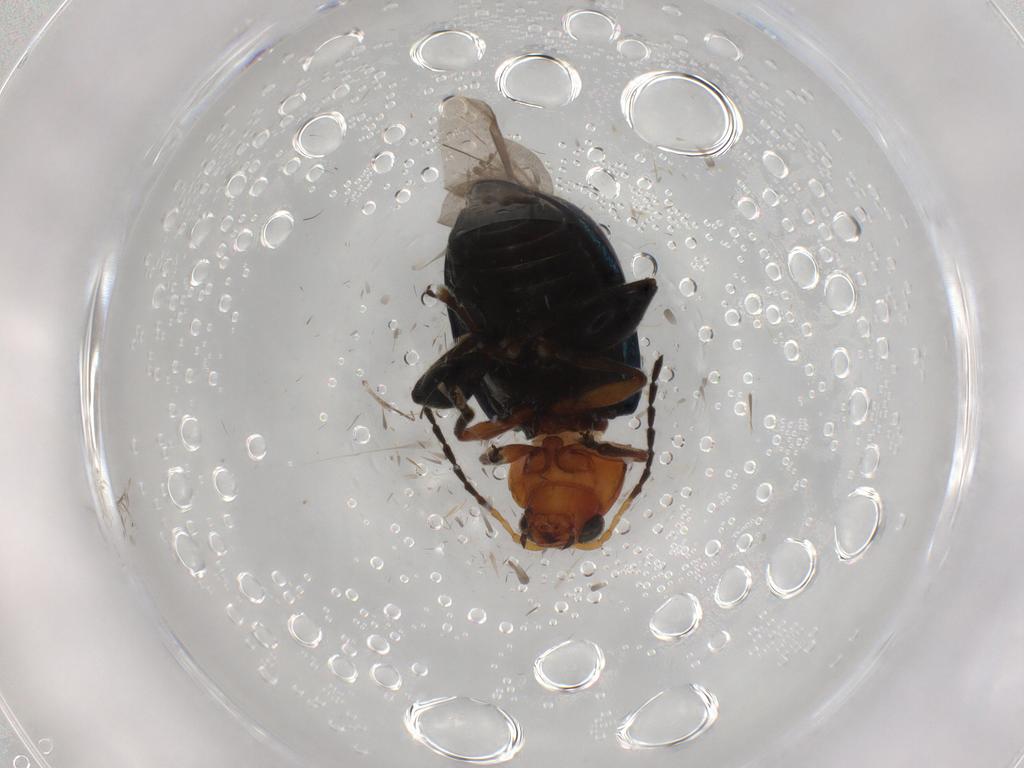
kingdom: Animalia
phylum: Arthropoda
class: Insecta
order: Coleoptera
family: Chrysomelidae
